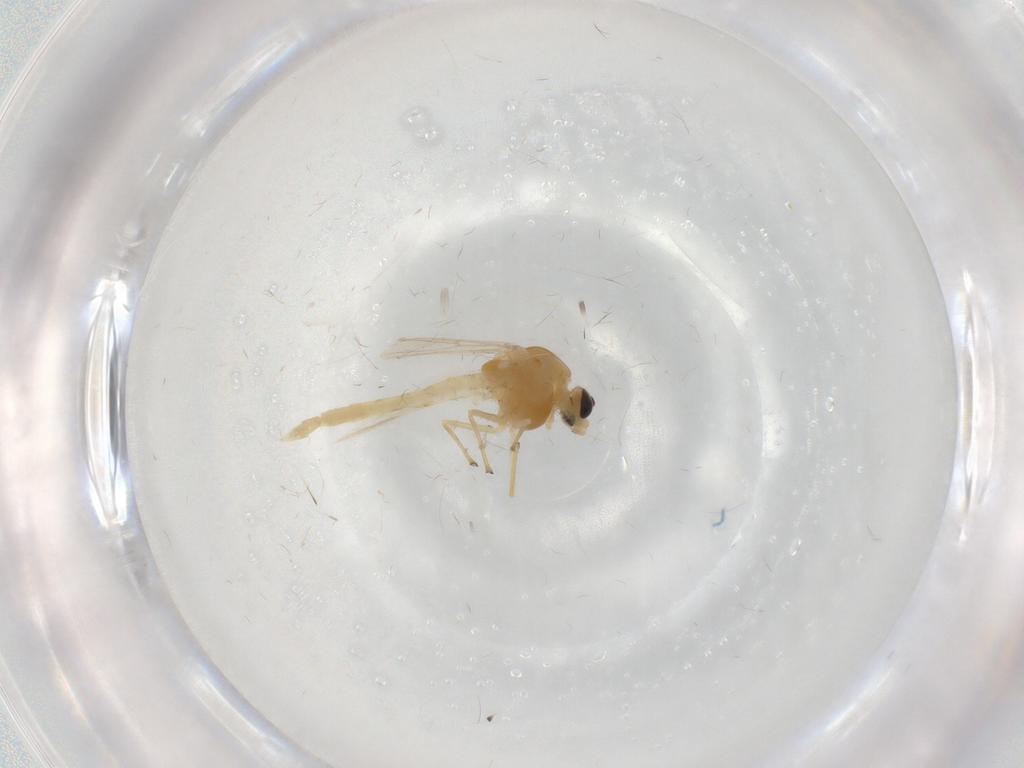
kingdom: Animalia
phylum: Arthropoda
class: Insecta
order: Diptera
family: Chironomidae
